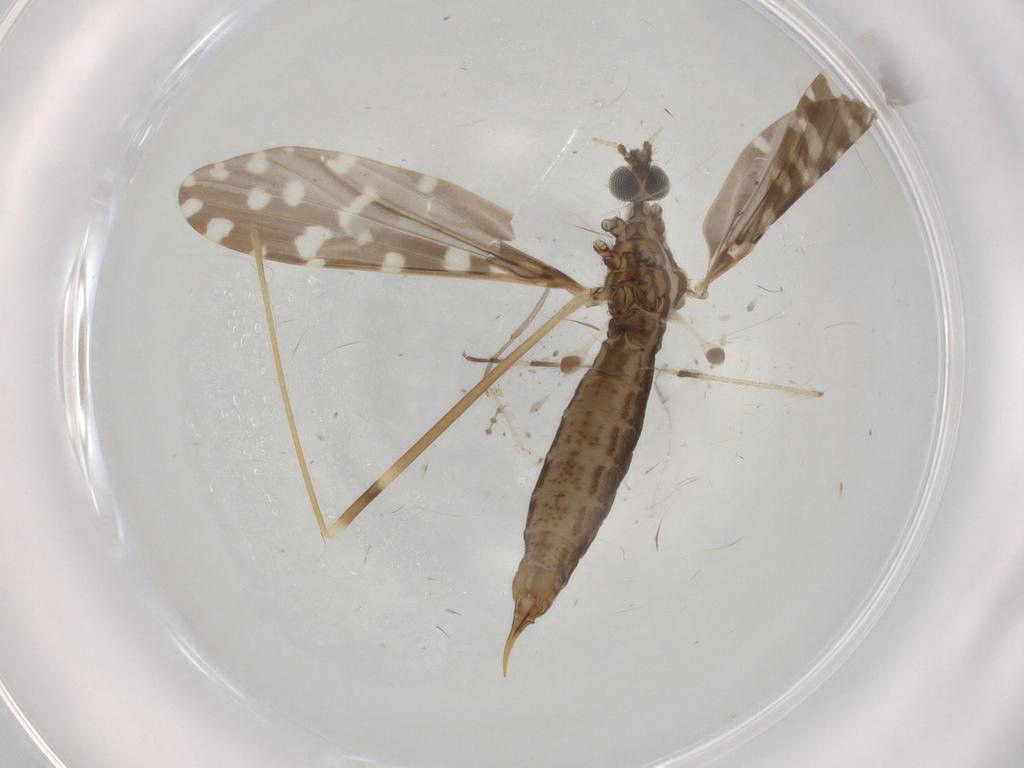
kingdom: Animalia
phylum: Arthropoda
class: Insecta
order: Diptera
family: Limoniidae
